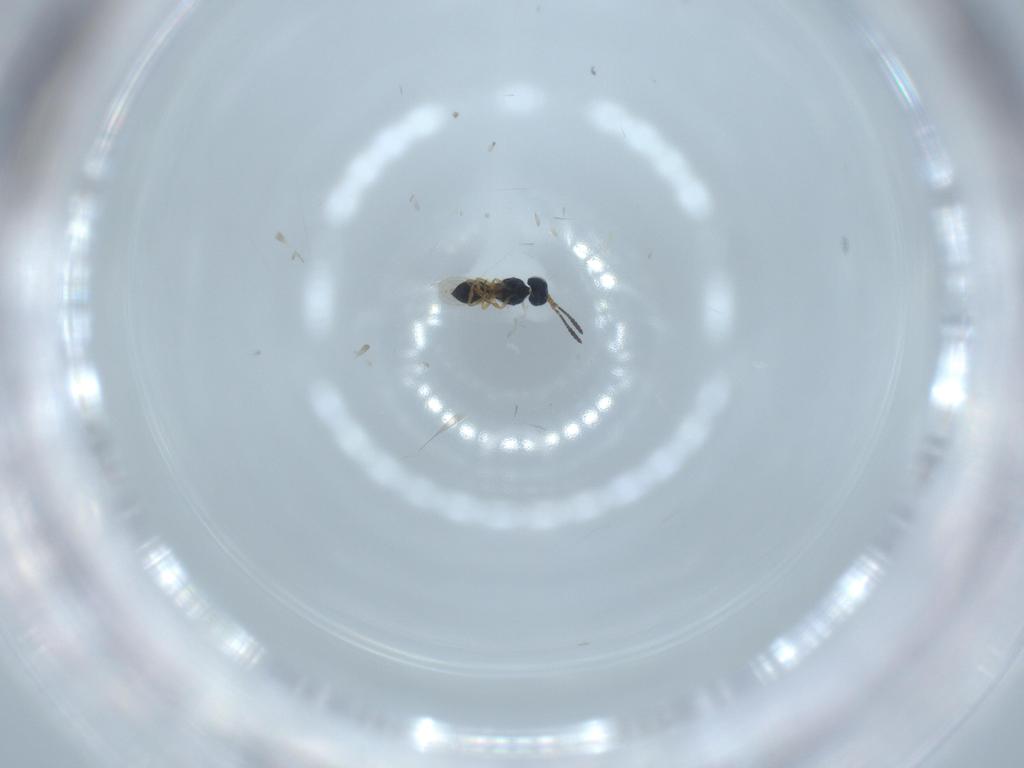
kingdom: Animalia
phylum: Arthropoda
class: Insecta
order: Hymenoptera
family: Scelionidae
